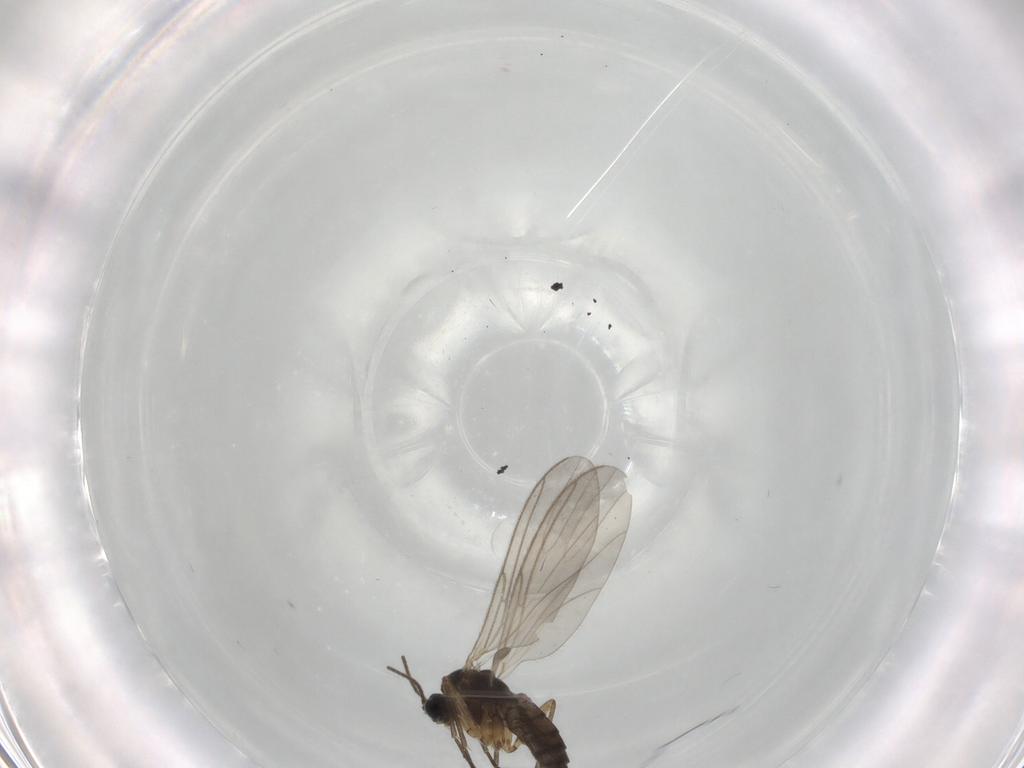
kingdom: Animalia
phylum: Arthropoda
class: Insecta
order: Diptera
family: Sciaridae
